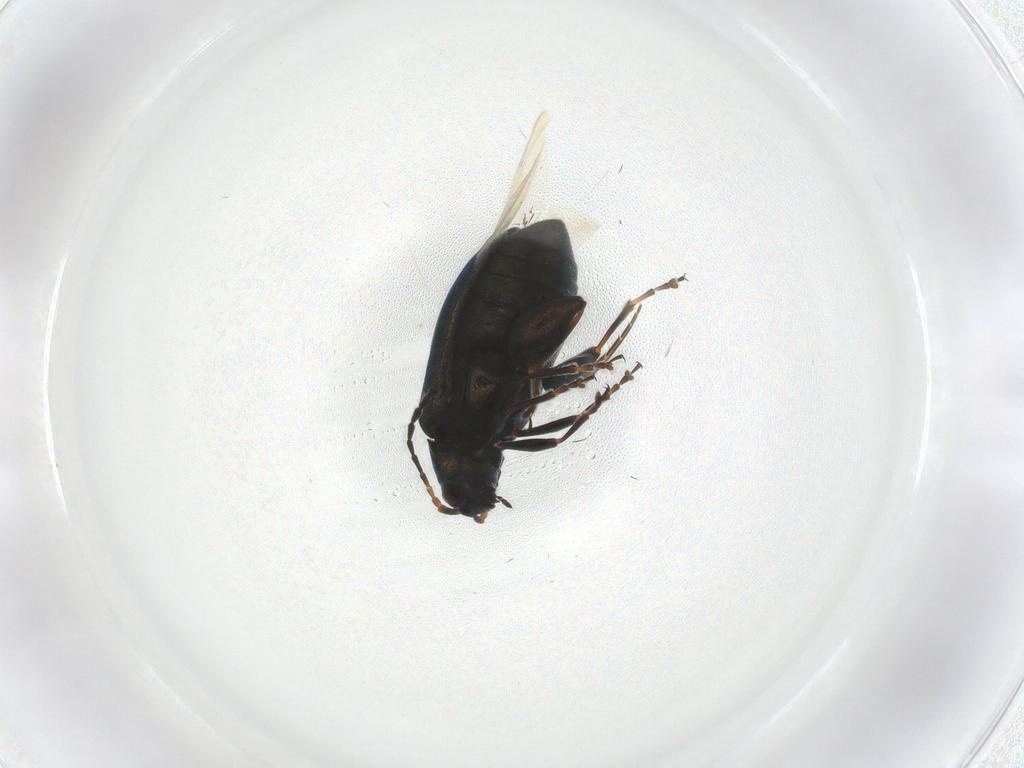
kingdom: Animalia
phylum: Arthropoda
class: Insecta
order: Coleoptera
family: Chrysomelidae
